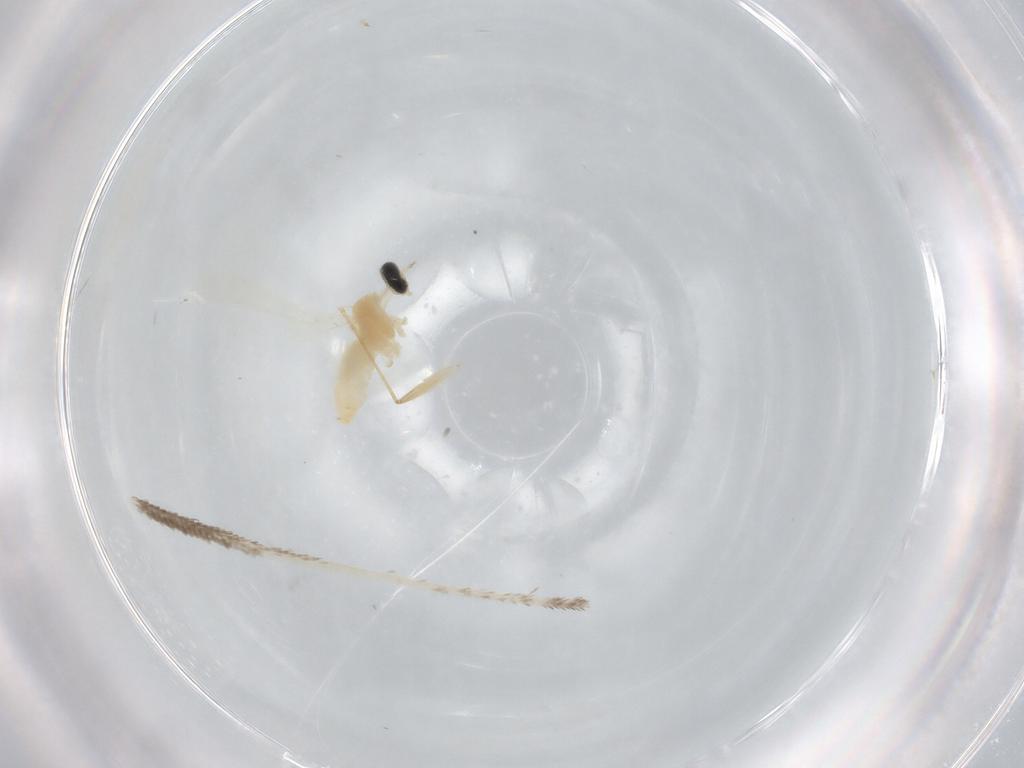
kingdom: Animalia
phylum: Arthropoda
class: Insecta
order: Diptera
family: Cecidomyiidae
